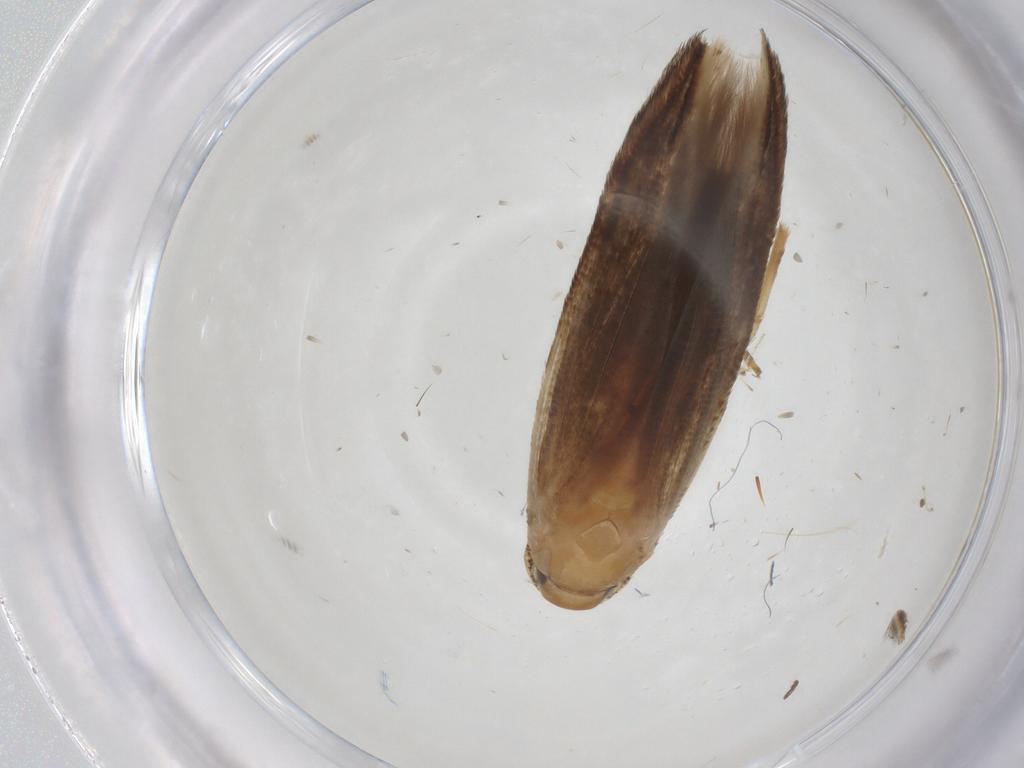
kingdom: Animalia
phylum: Arthropoda
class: Insecta
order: Lepidoptera
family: Momphidae
